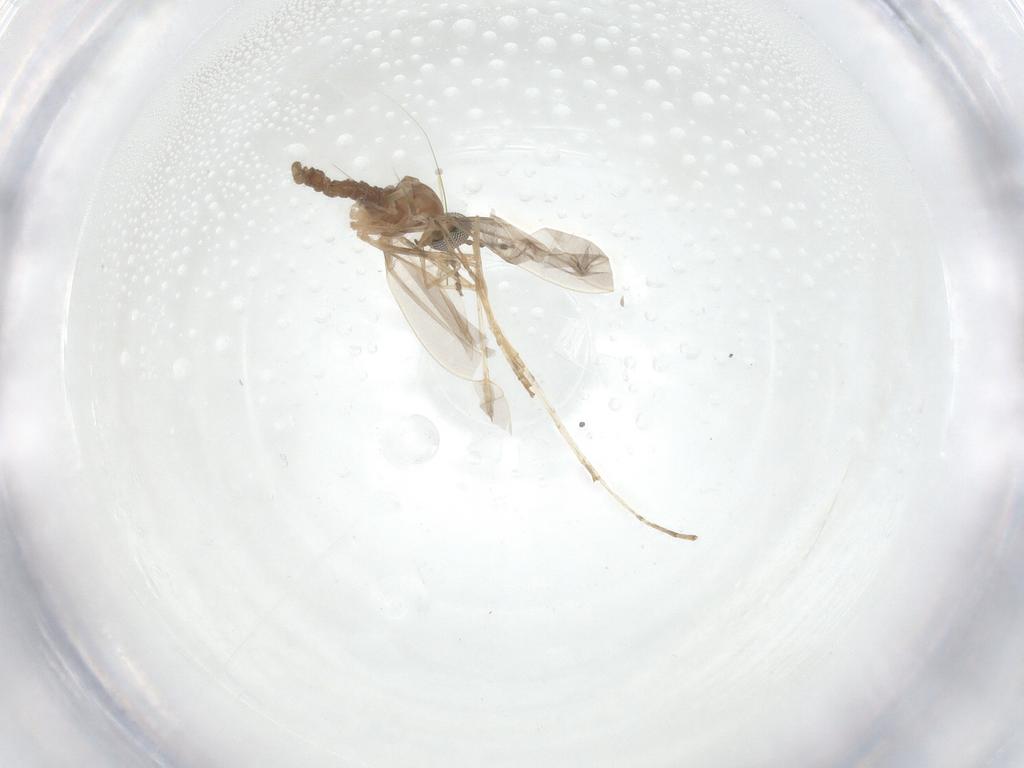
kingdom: Animalia
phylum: Arthropoda
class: Insecta
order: Diptera
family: Cecidomyiidae
